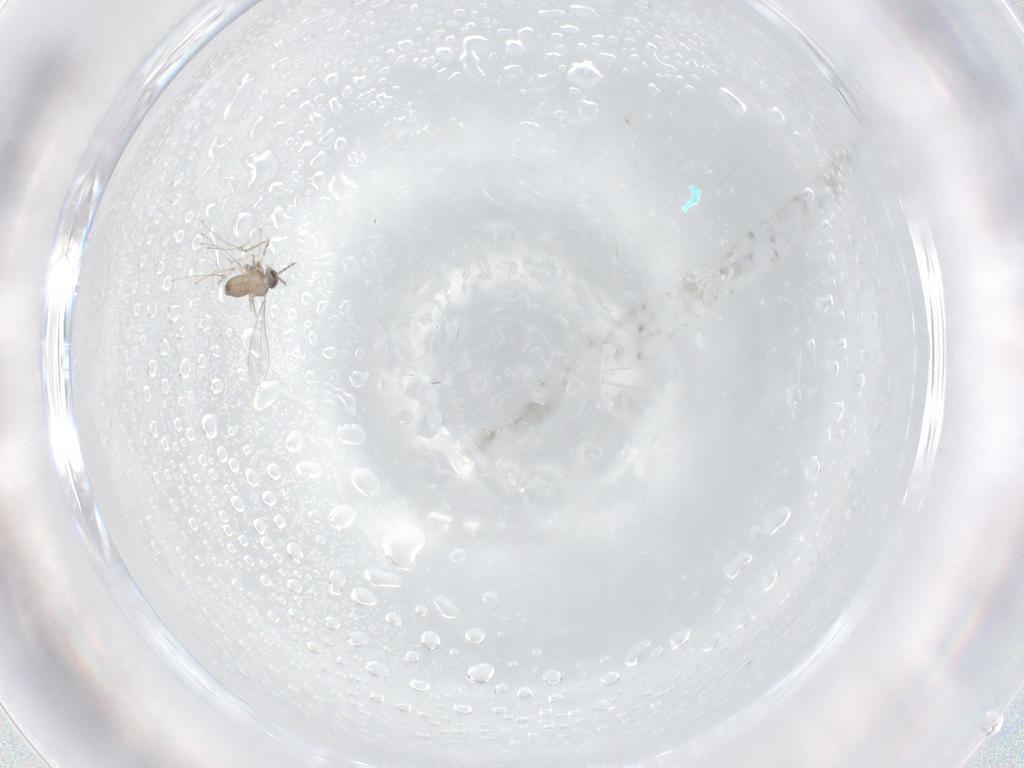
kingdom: Animalia
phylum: Arthropoda
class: Insecta
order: Diptera
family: Cecidomyiidae
